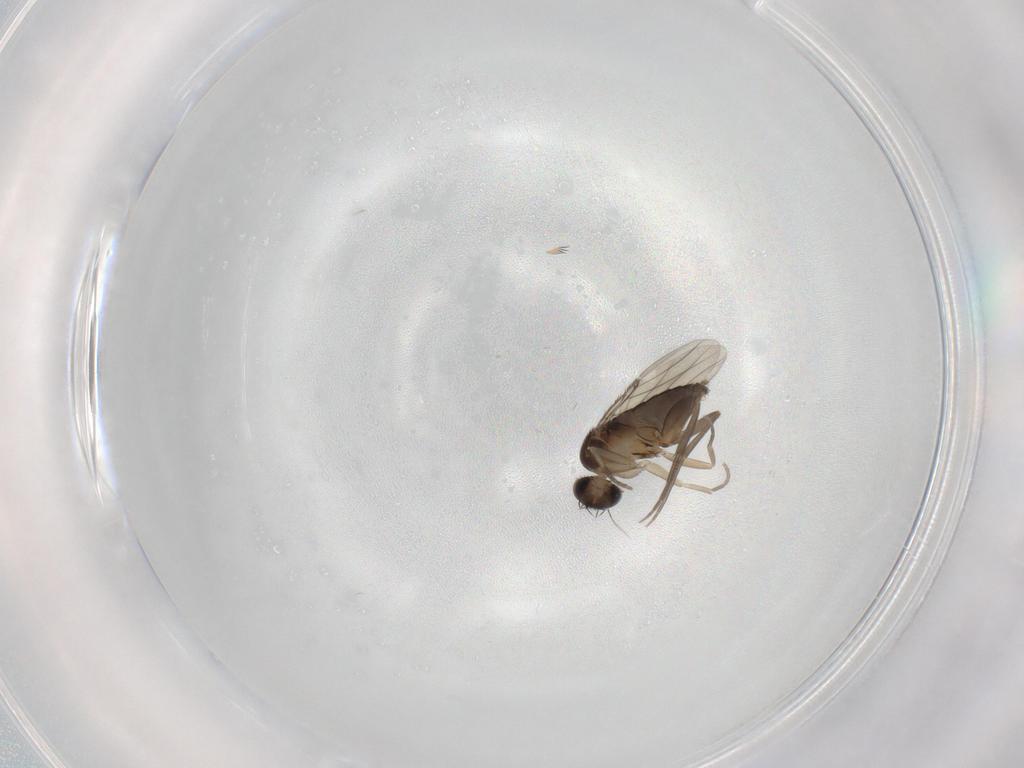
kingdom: Animalia
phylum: Arthropoda
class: Insecta
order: Diptera
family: Phoridae
